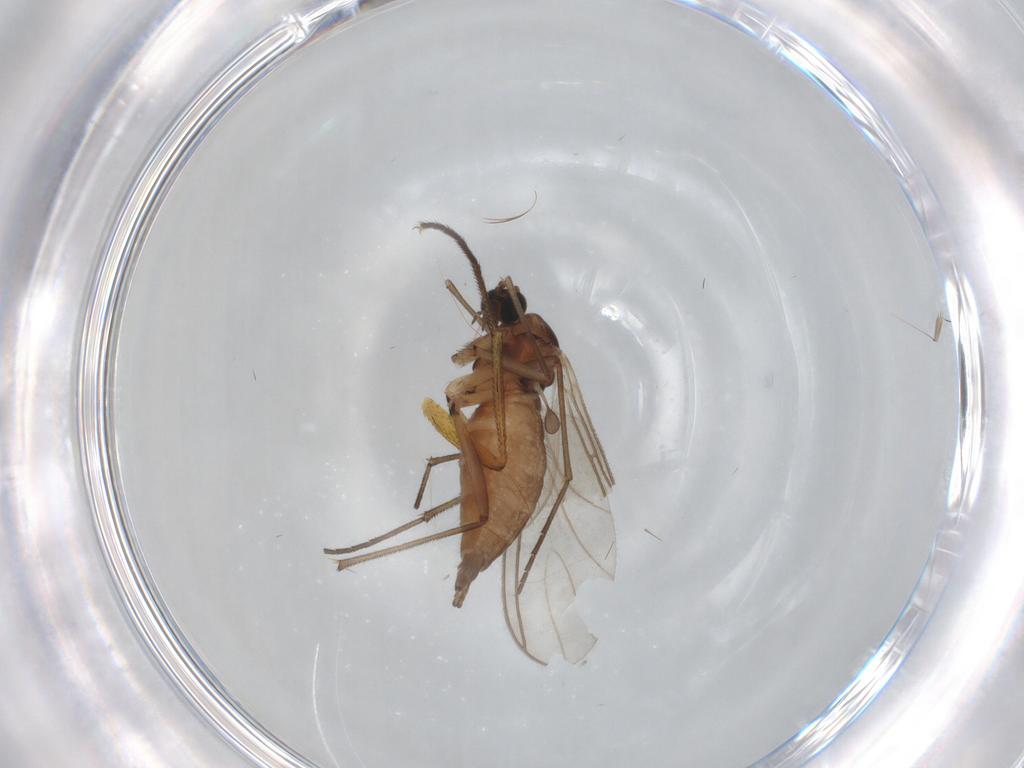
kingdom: Animalia
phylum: Arthropoda
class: Insecta
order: Diptera
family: Sciaridae
